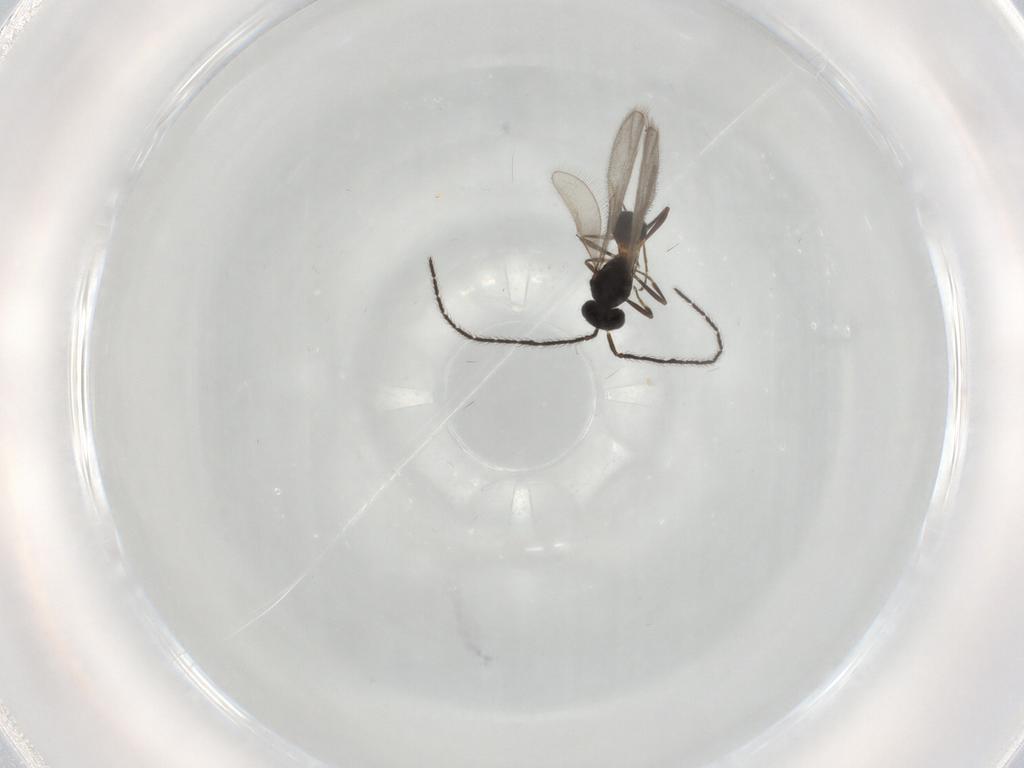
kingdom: Animalia
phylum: Arthropoda
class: Insecta
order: Hymenoptera
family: Scelionidae
